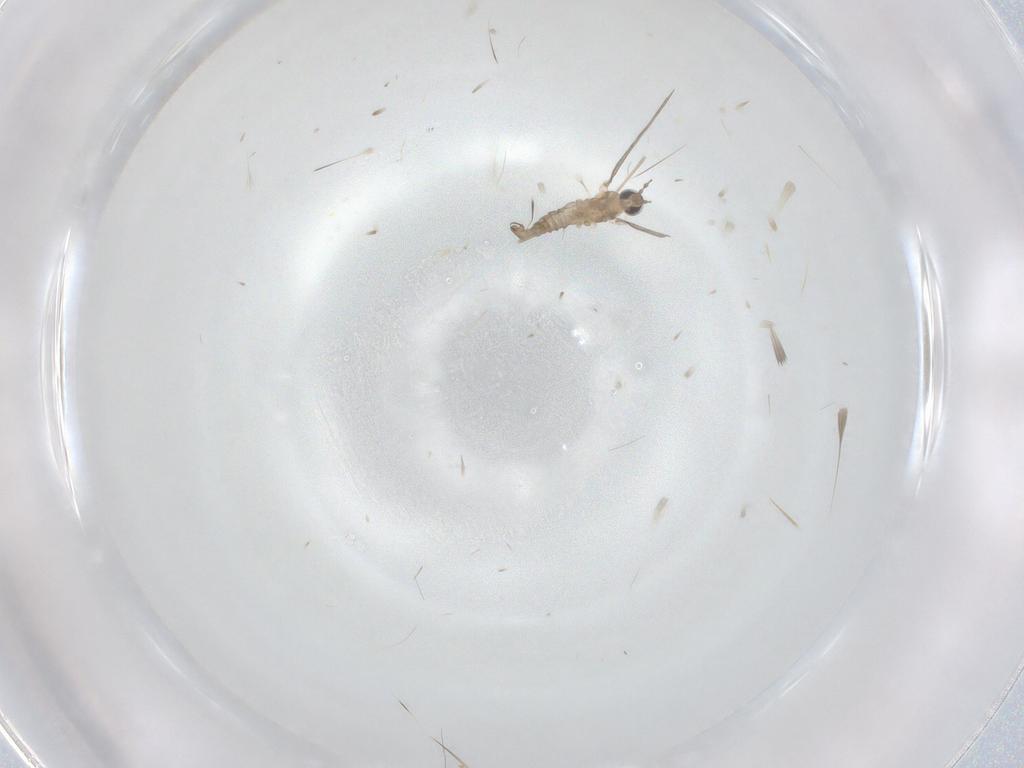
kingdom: Animalia
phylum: Arthropoda
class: Insecta
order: Diptera
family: Cecidomyiidae
